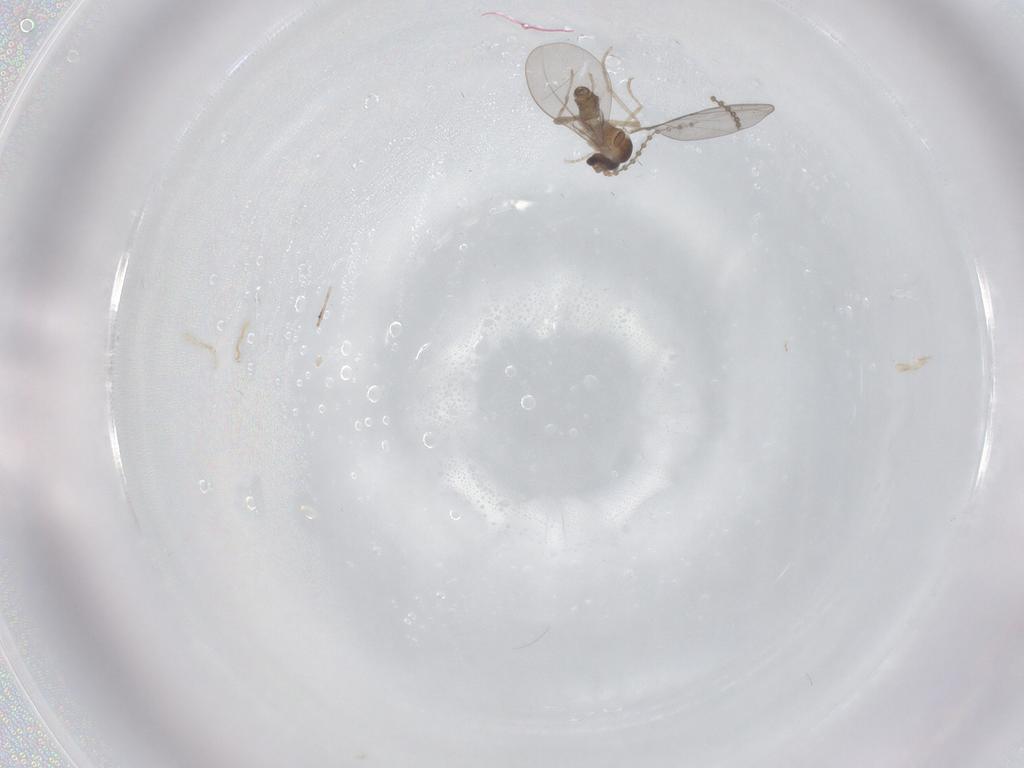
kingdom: Animalia
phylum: Arthropoda
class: Insecta
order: Diptera
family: Cecidomyiidae
